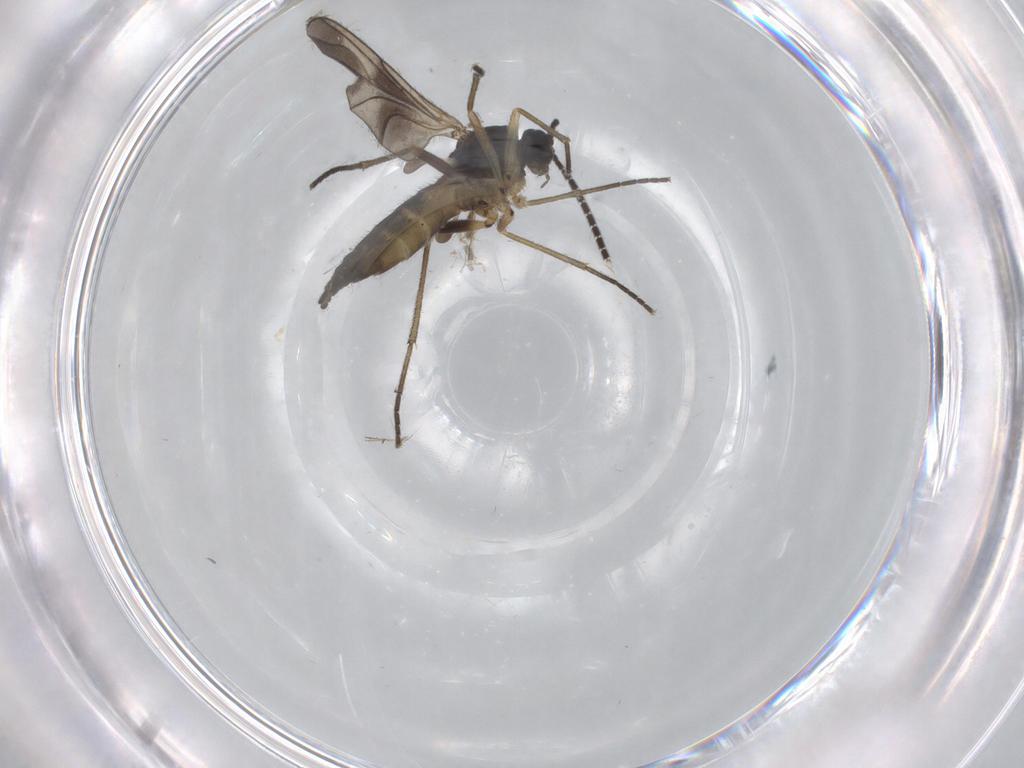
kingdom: Animalia
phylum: Arthropoda
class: Insecta
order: Diptera
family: Sciaridae
